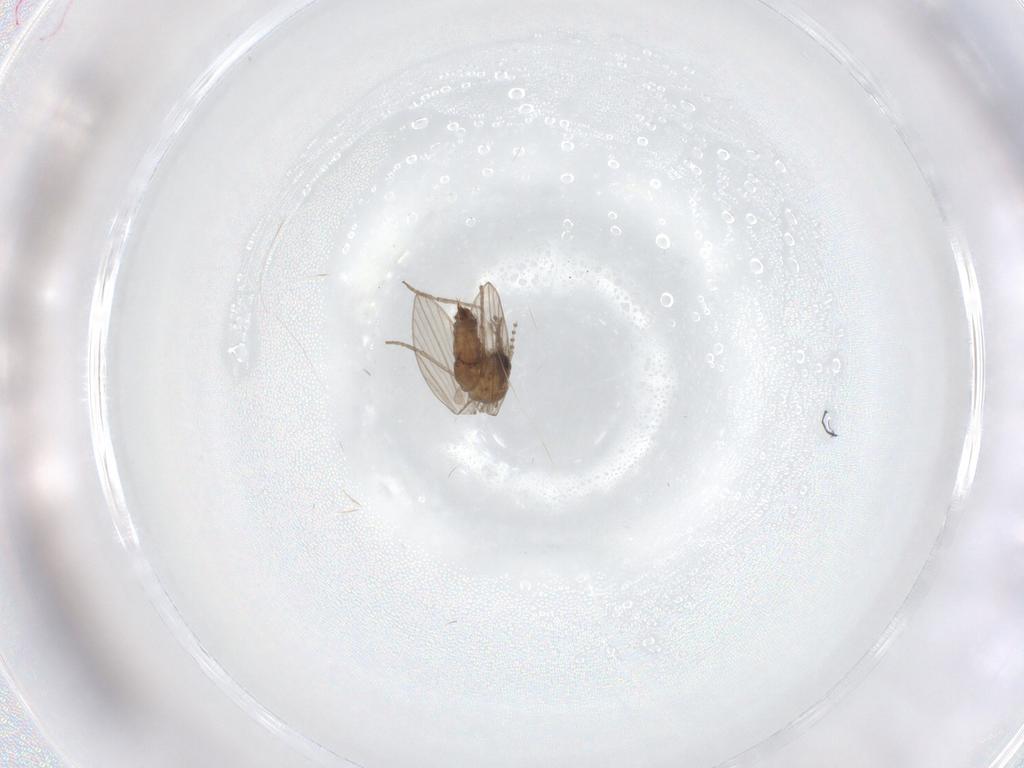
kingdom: Animalia
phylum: Arthropoda
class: Insecta
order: Diptera
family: Psychodidae
